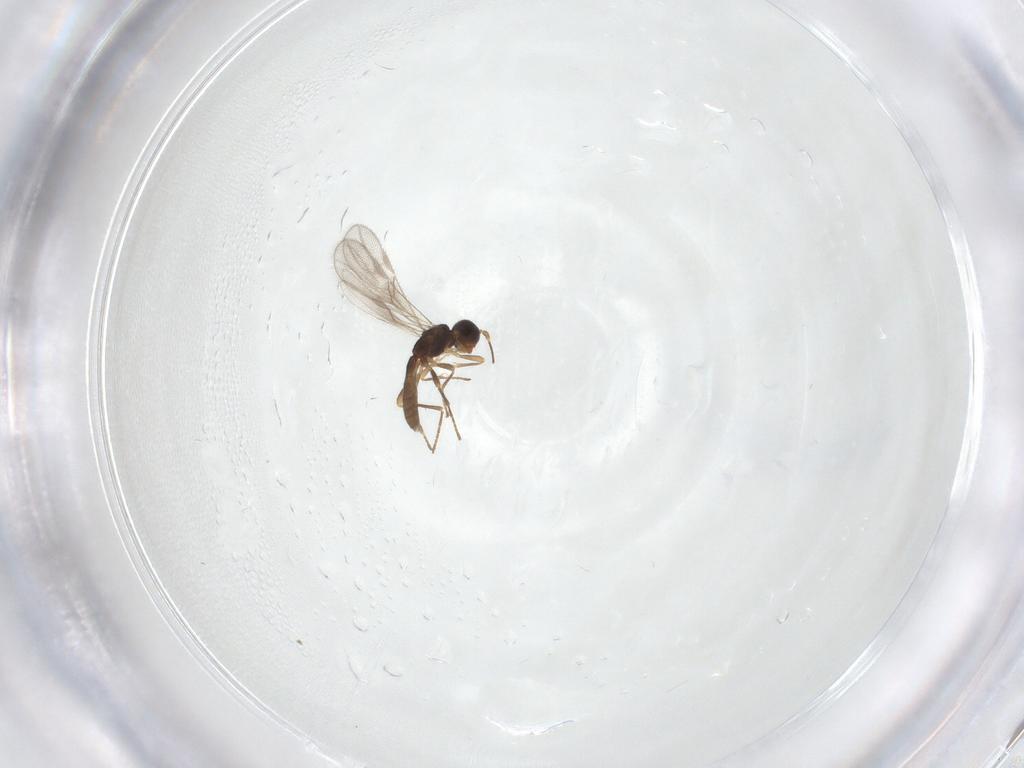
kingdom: Animalia
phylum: Arthropoda
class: Insecta
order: Hymenoptera
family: Braconidae
